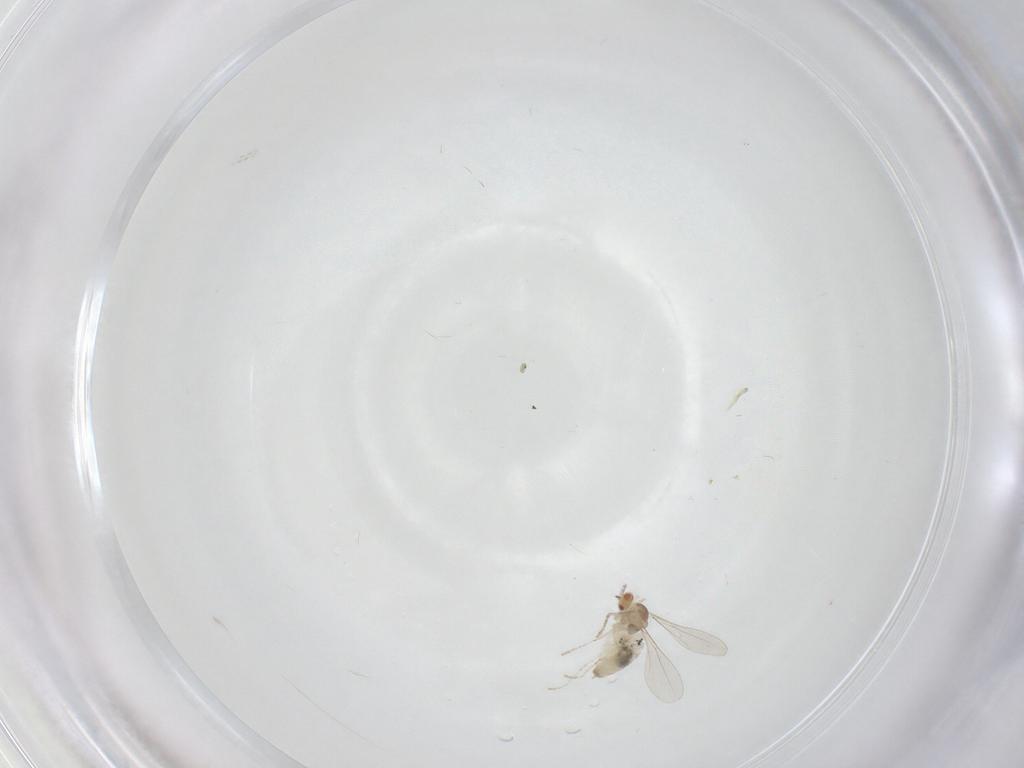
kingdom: Animalia
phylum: Arthropoda
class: Insecta
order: Diptera
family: Cecidomyiidae
